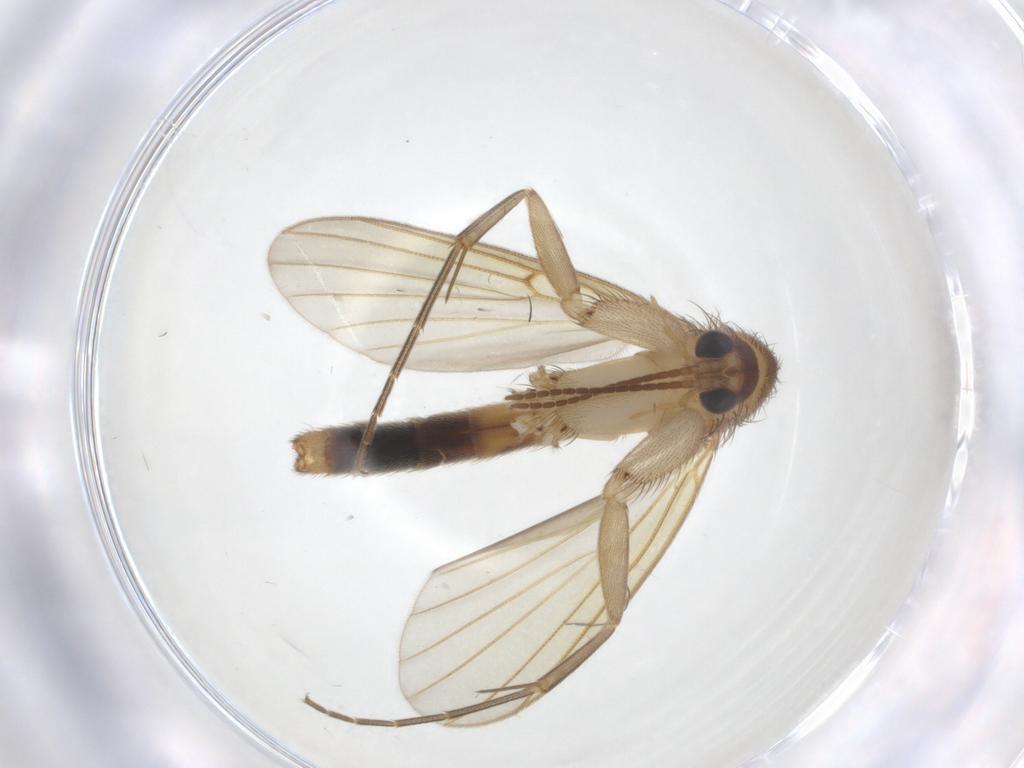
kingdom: Animalia
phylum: Arthropoda
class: Insecta
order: Diptera
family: Mycetophilidae
